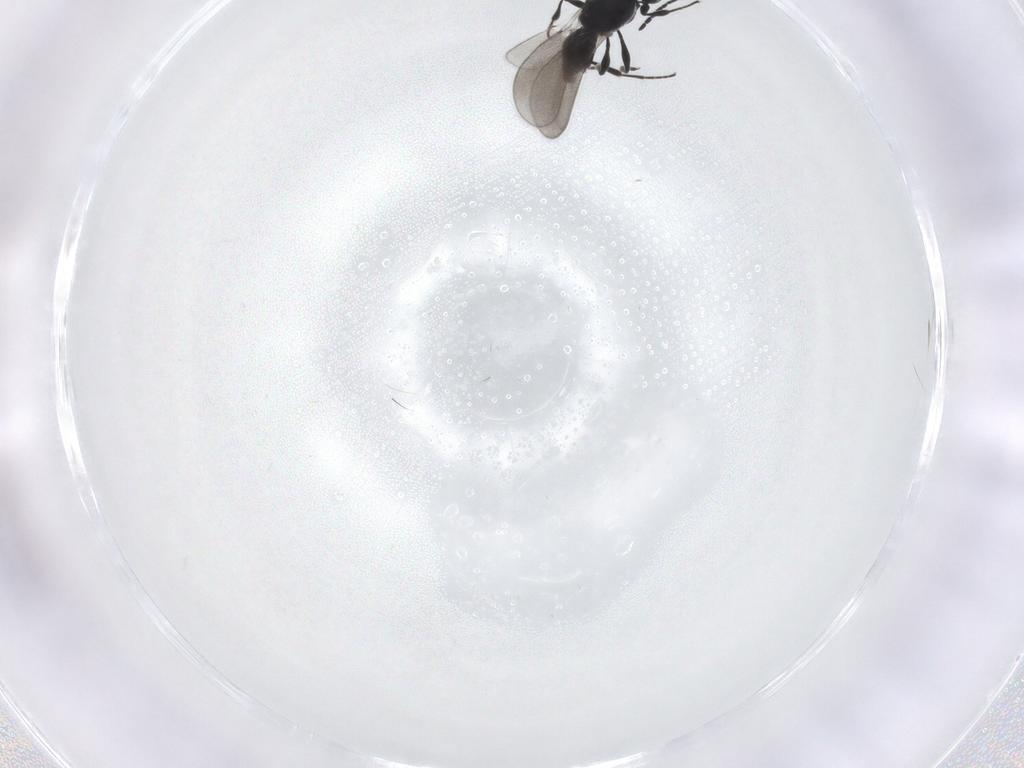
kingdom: Animalia
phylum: Arthropoda
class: Insecta
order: Diptera
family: Mythicomyiidae
